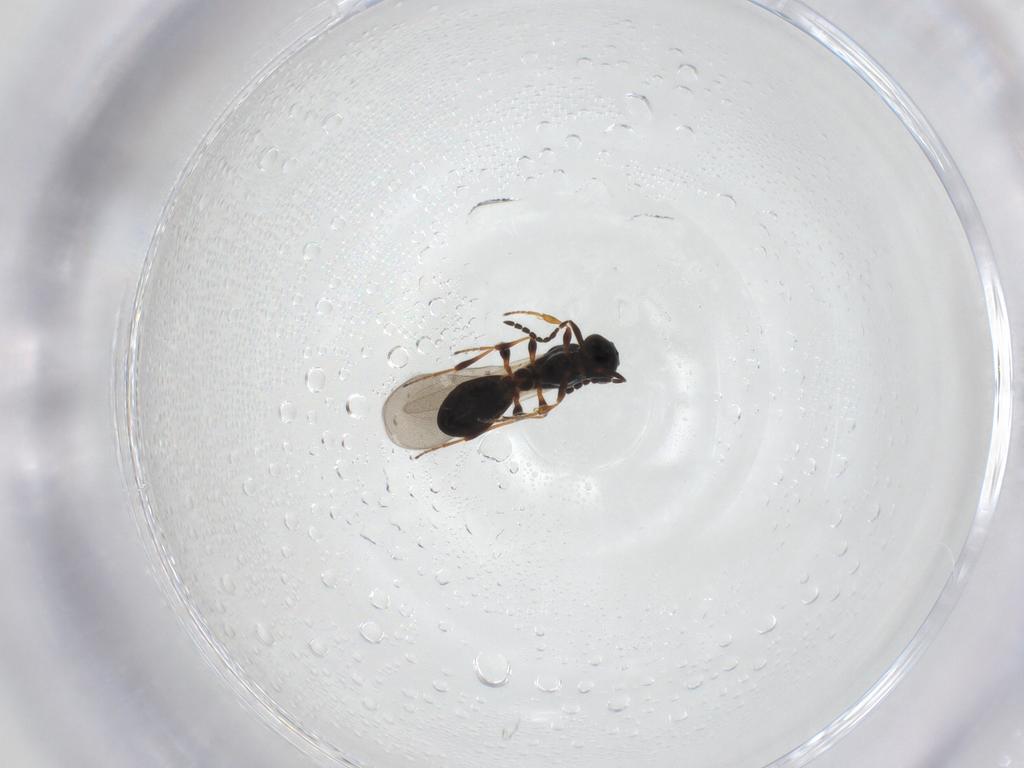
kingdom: Animalia
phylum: Arthropoda
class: Insecta
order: Hymenoptera
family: Platygastridae
